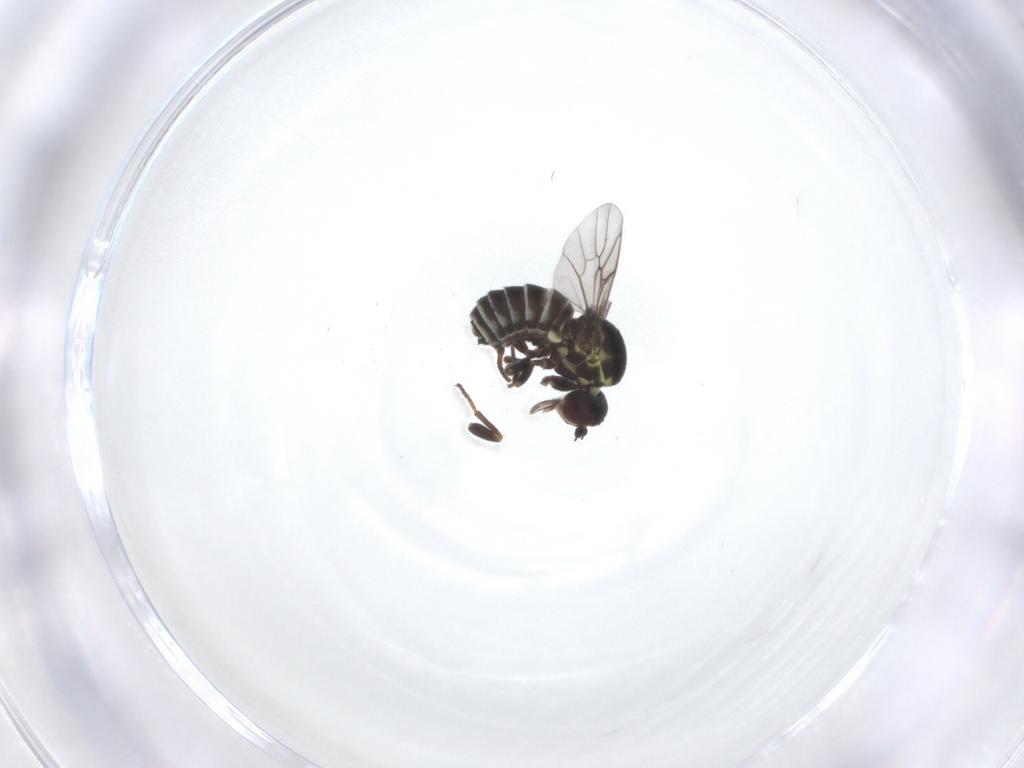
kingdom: Animalia
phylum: Arthropoda
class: Insecta
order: Diptera
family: Bombyliidae
